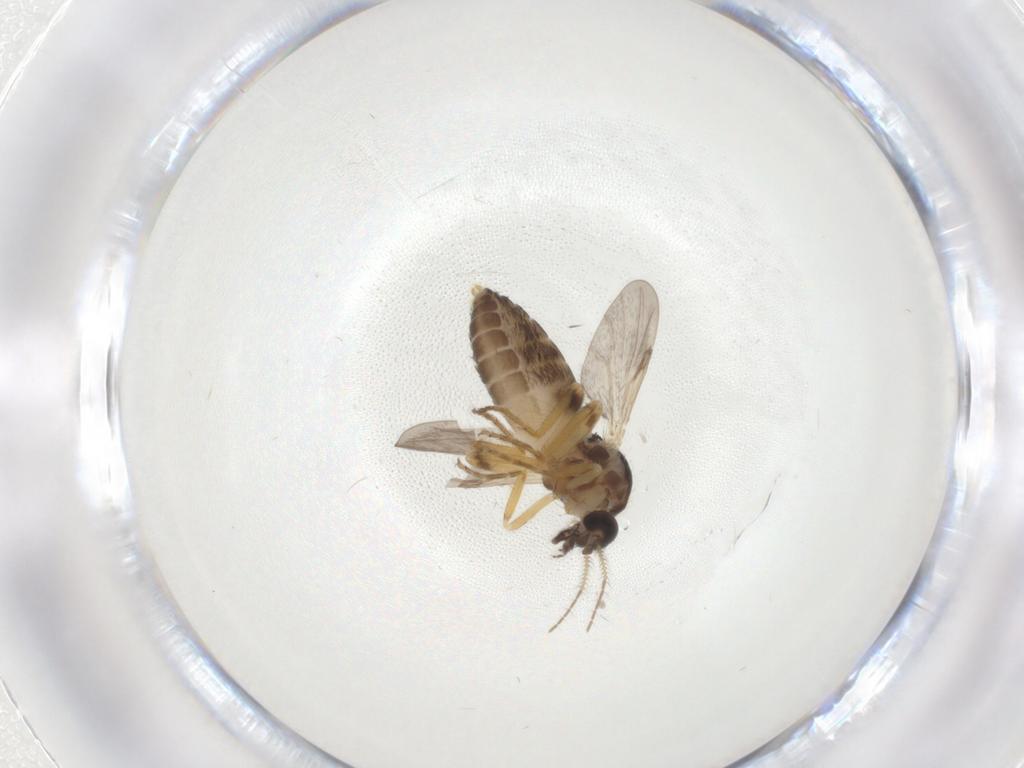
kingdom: Animalia
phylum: Arthropoda
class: Insecta
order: Diptera
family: Ceratopogonidae
